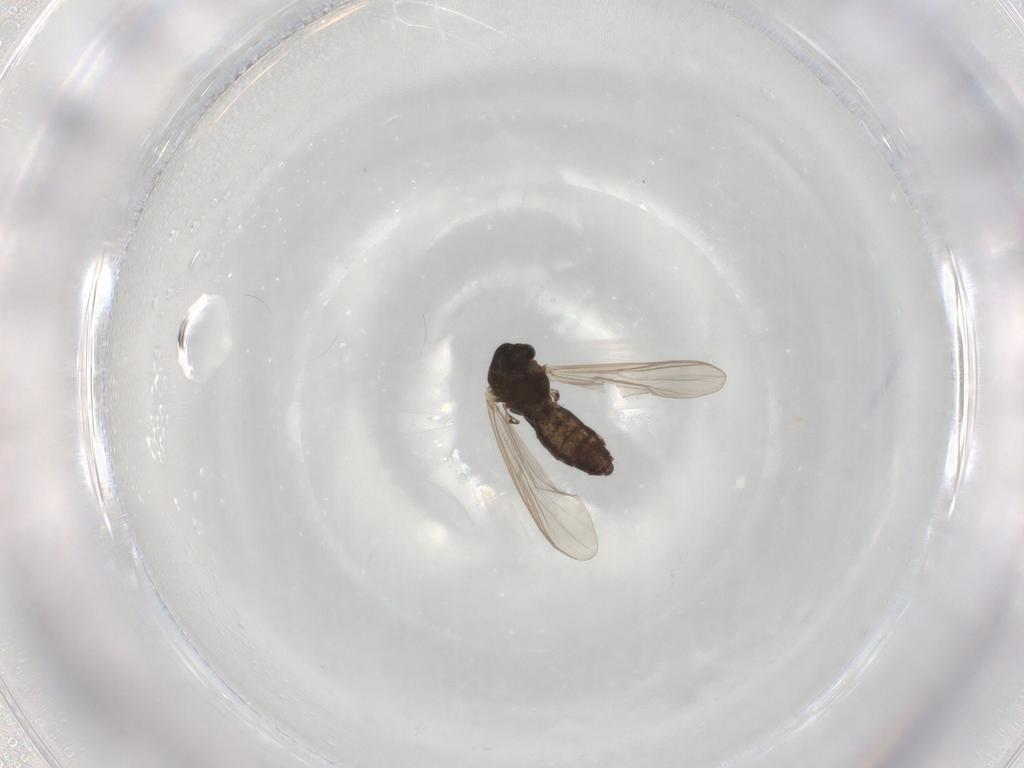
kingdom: Animalia
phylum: Arthropoda
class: Insecta
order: Diptera
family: Chironomidae
